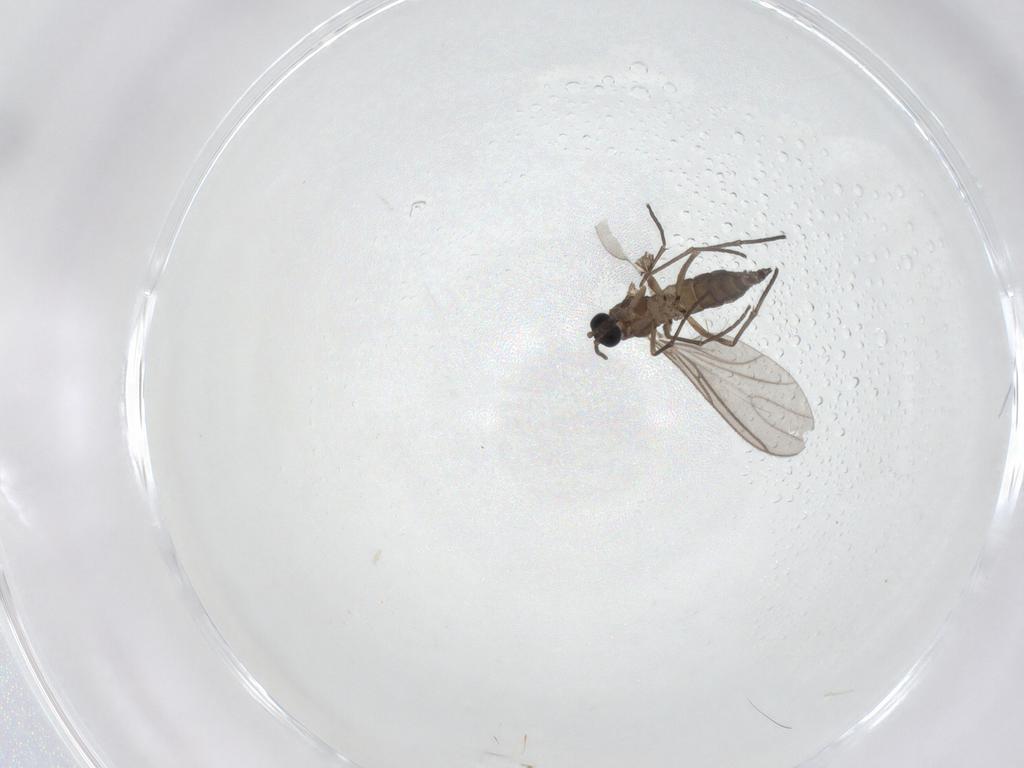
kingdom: Animalia
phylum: Arthropoda
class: Insecta
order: Diptera
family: Sciaridae
